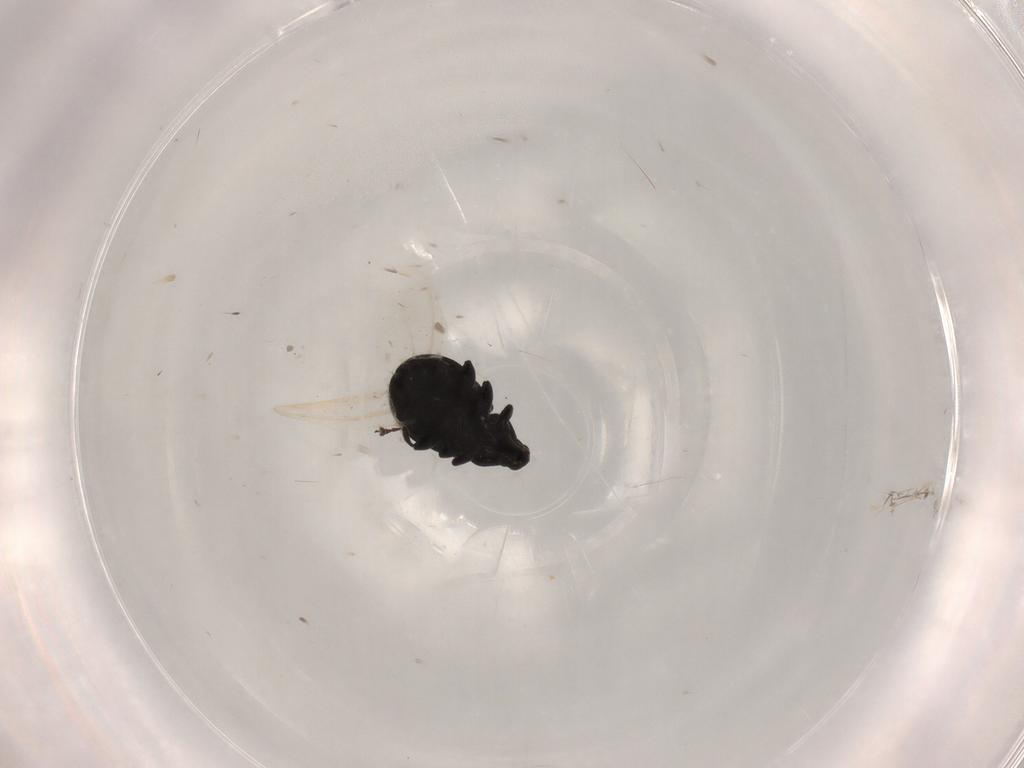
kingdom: Animalia
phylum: Arthropoda
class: Insecta
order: Coleoptera
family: Curculionidae
